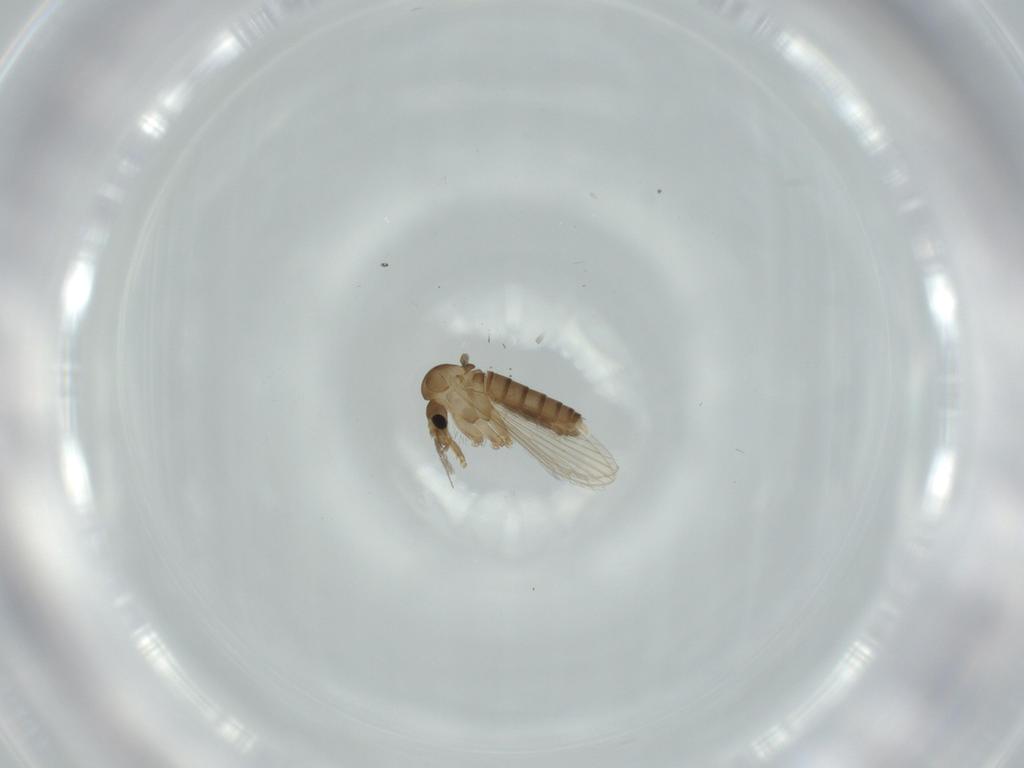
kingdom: Animalia
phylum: Arthropoda
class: Insecta
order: Diptera
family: Psychodidae
